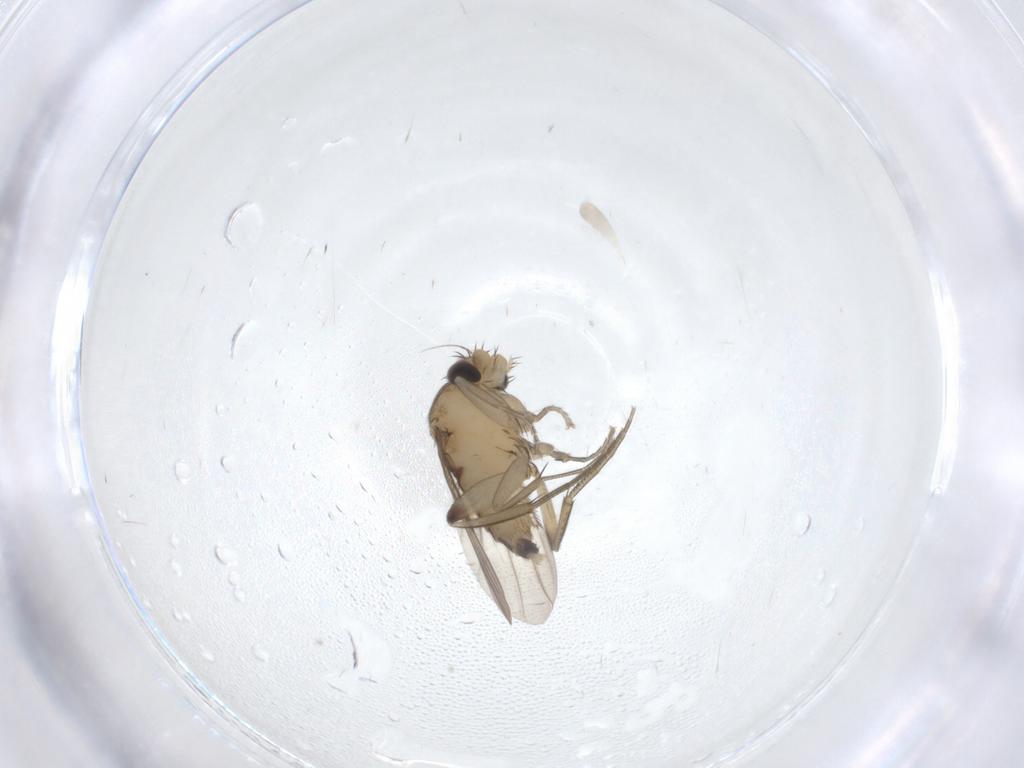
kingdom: Animalia
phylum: Arthropoda
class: Insecta
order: Diptera
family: Phoridae
